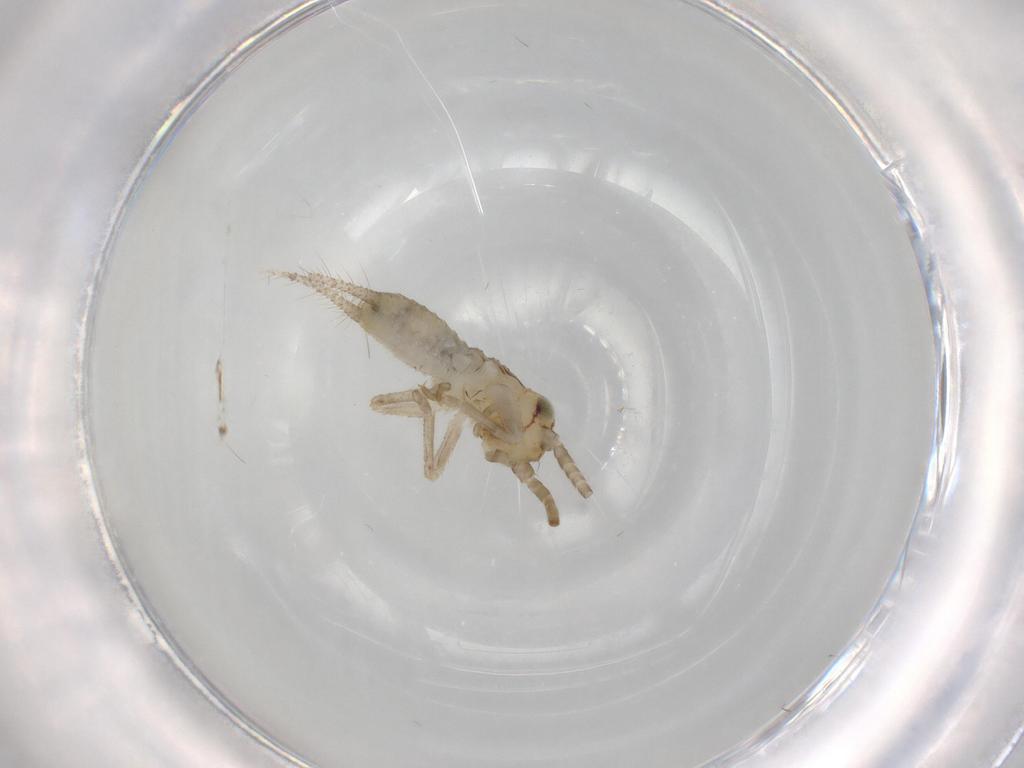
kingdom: Animalia
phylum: Arthropoda
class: Insecta
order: Orthoptera
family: Gryllidae
